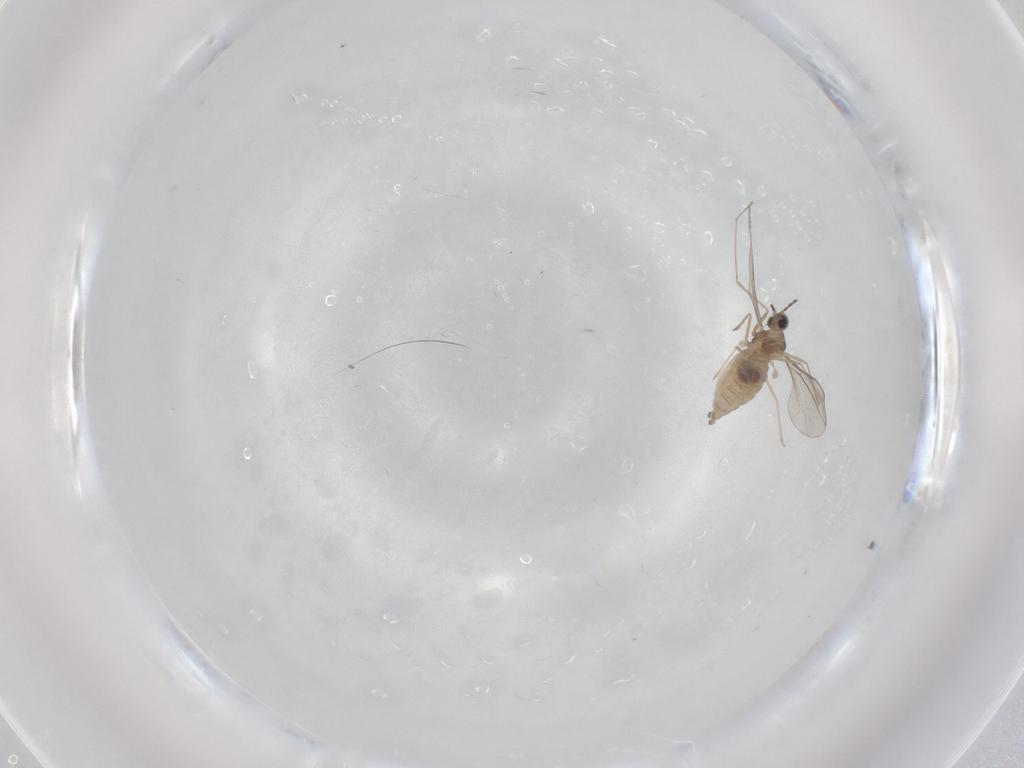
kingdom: Animalia
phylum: Arthropoda
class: Insecta
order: Diptera
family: Cecidomyiidae
